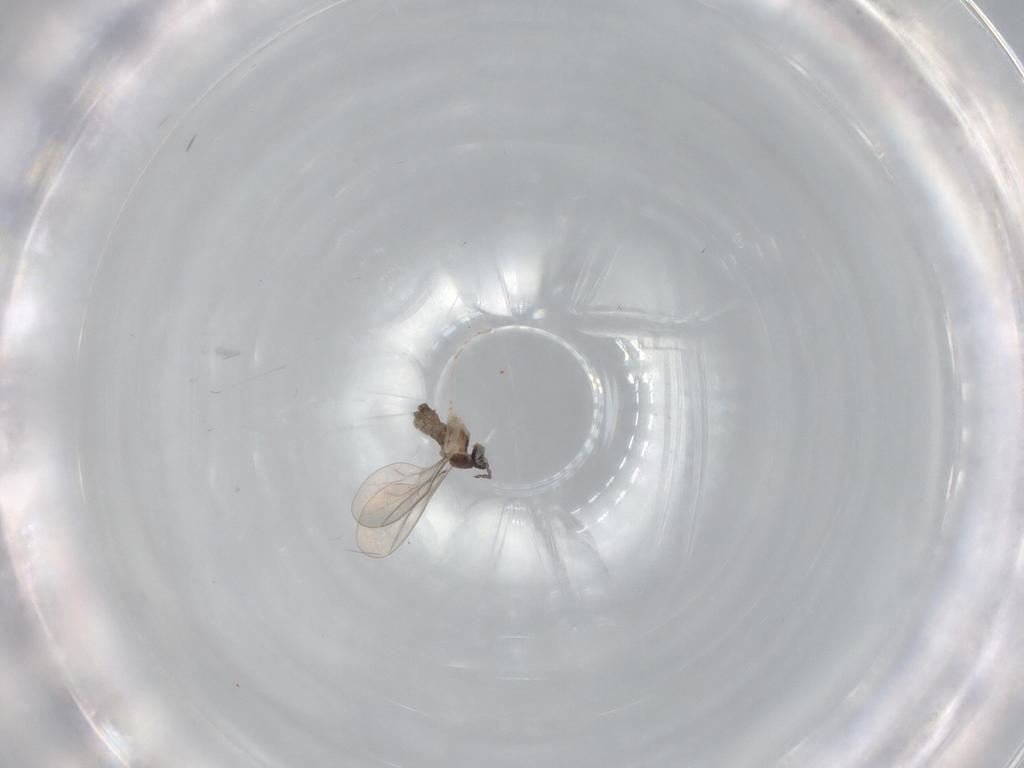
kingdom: Animalia
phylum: Arthropoda
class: Insecta
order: Diptera
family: Cecidomyiidae
